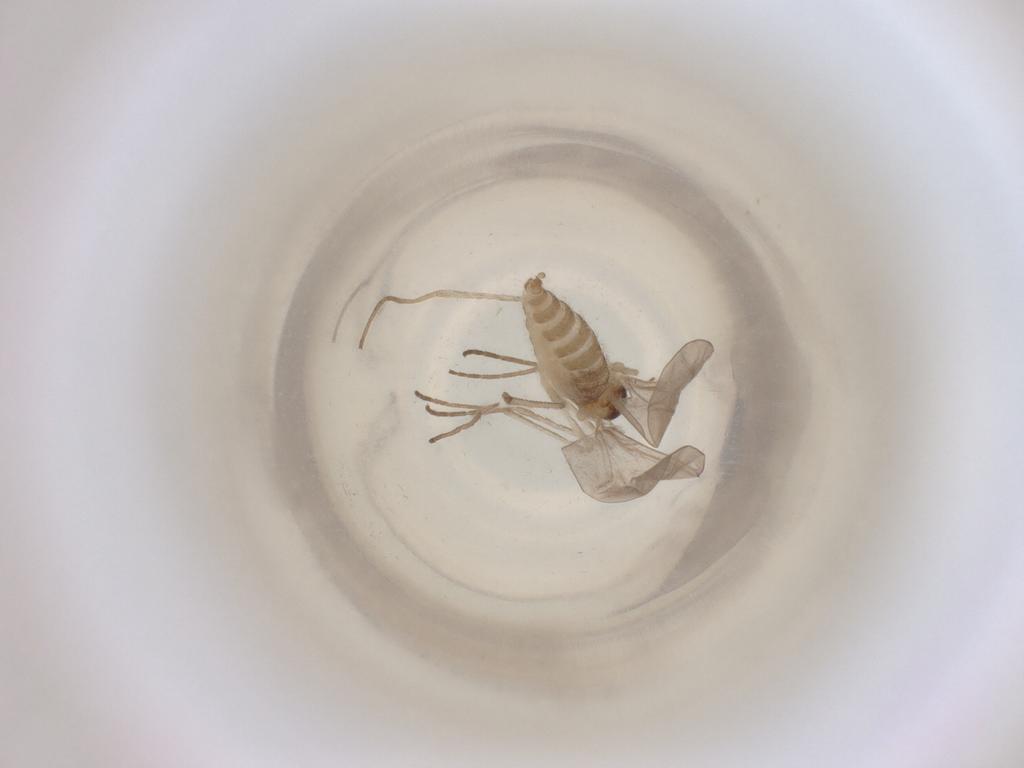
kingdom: Animalia
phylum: Arthropoda
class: Insecta
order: Diptera
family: Cecidomyiidae
